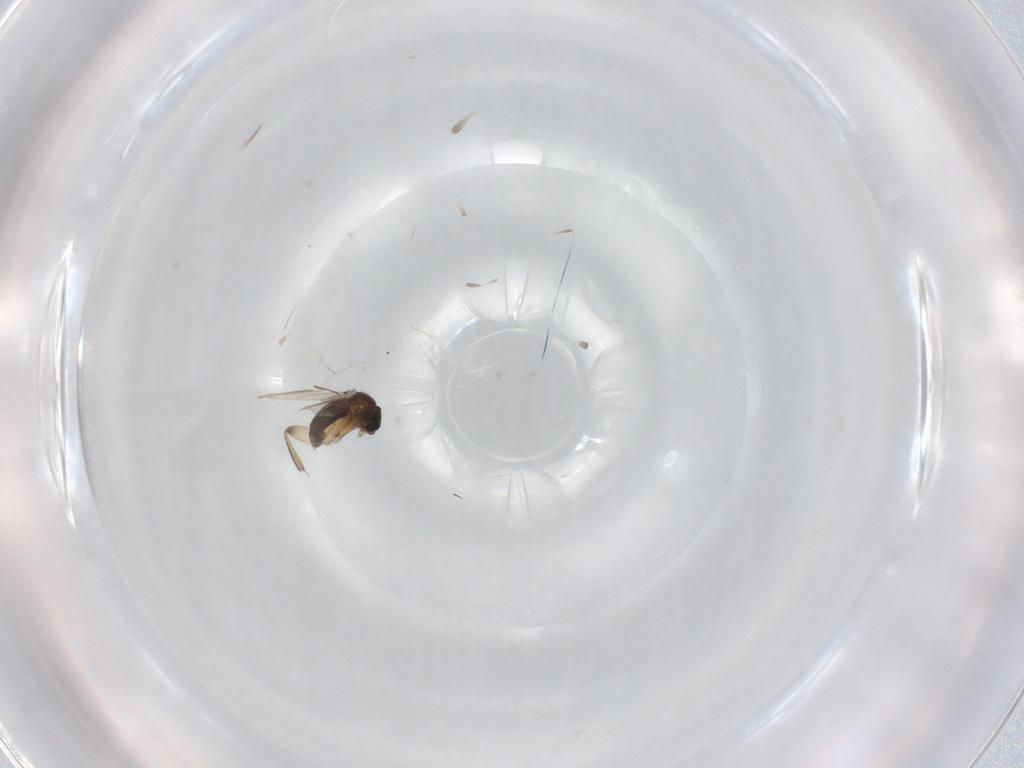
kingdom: Animalia
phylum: Arthropoda
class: Insecta
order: Diptera
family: Phoridae
